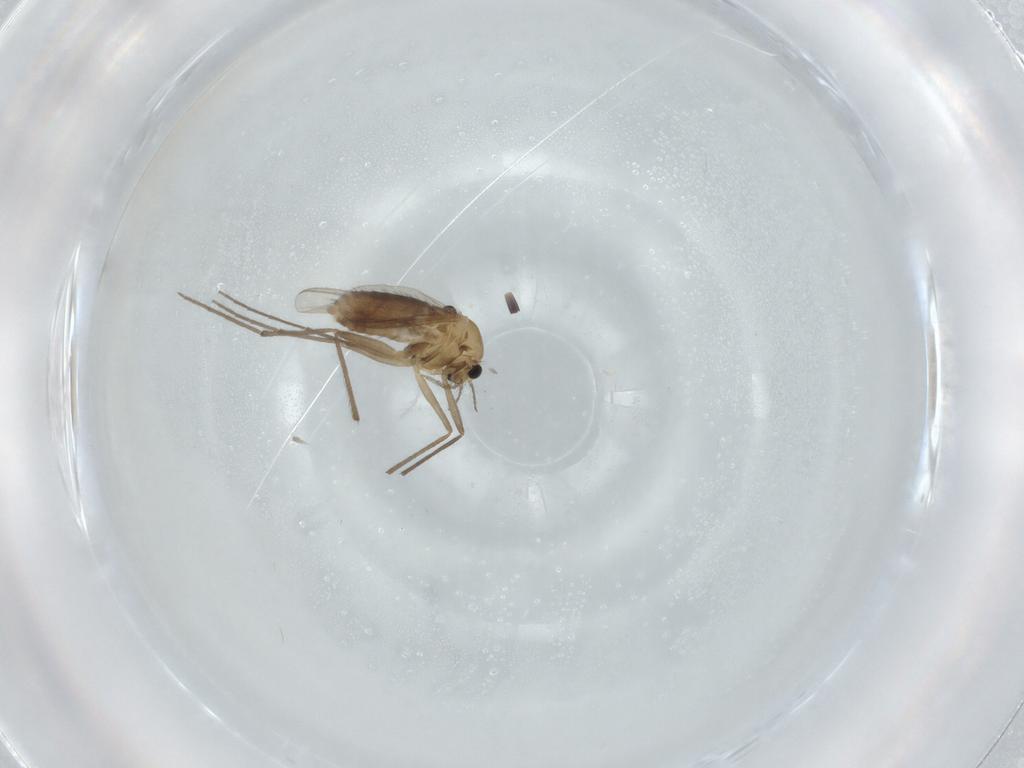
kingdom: Animalia
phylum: Arthropoda
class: Insecta
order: Diptera
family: Chironomidae
